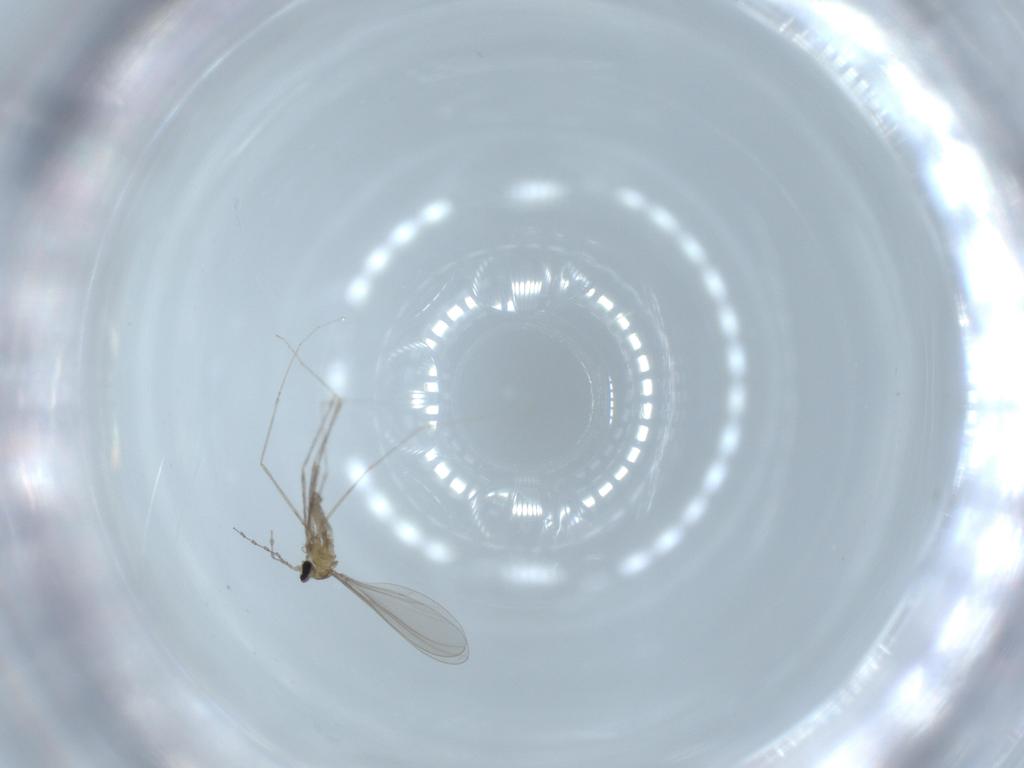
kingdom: Animalia
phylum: Arthropoda
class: Insecta
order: Diptera
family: Phoridae
